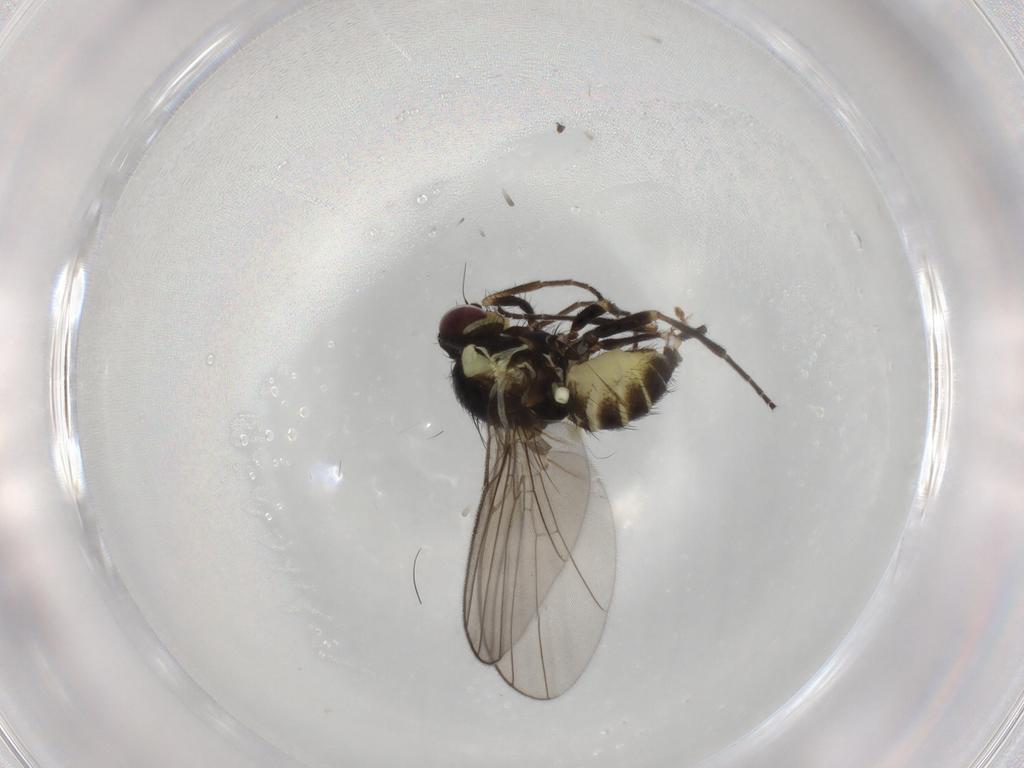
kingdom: Animalia
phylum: Arthropoda
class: Insecta
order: Diptera
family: Agromyzidae
